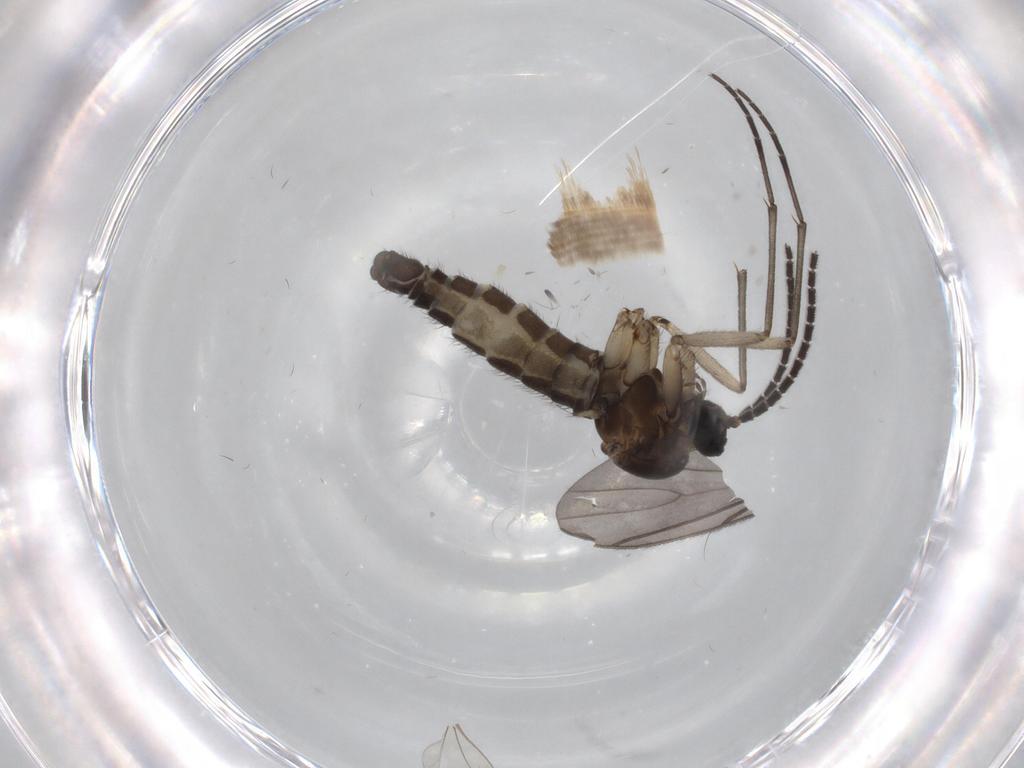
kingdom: Animalia
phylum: Arthropoda
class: Insecta
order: Diptera
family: Sciaridae
